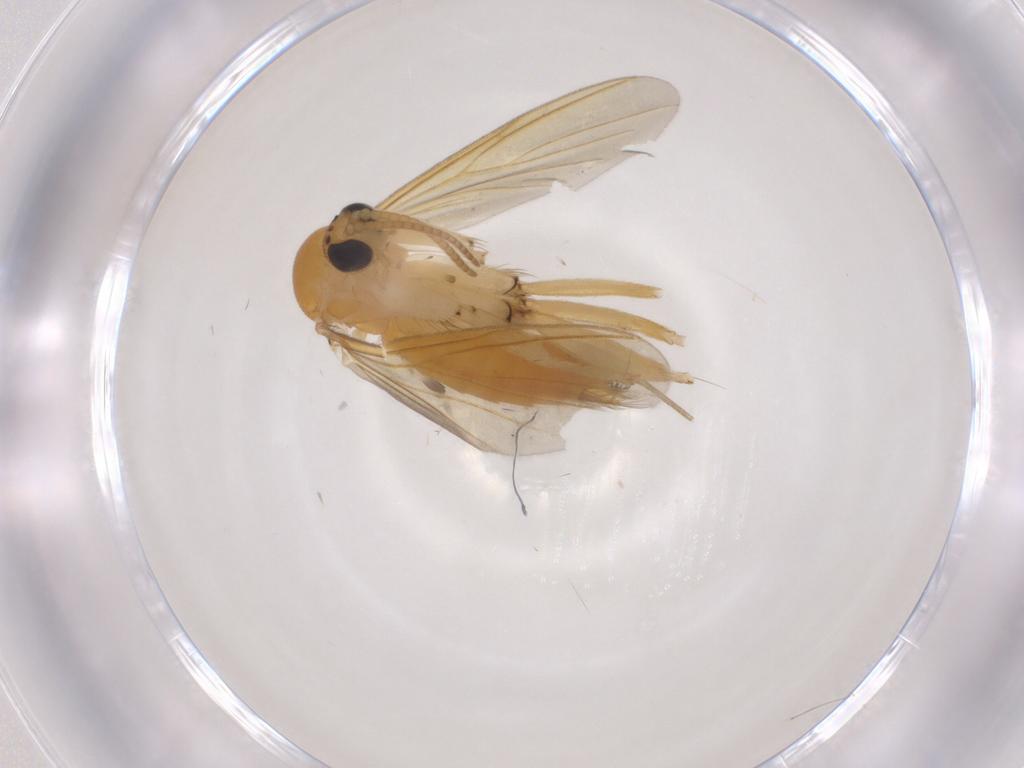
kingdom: Animalia
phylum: Arthropoda
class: Insecta
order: Diptera
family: Mycetophilidae
